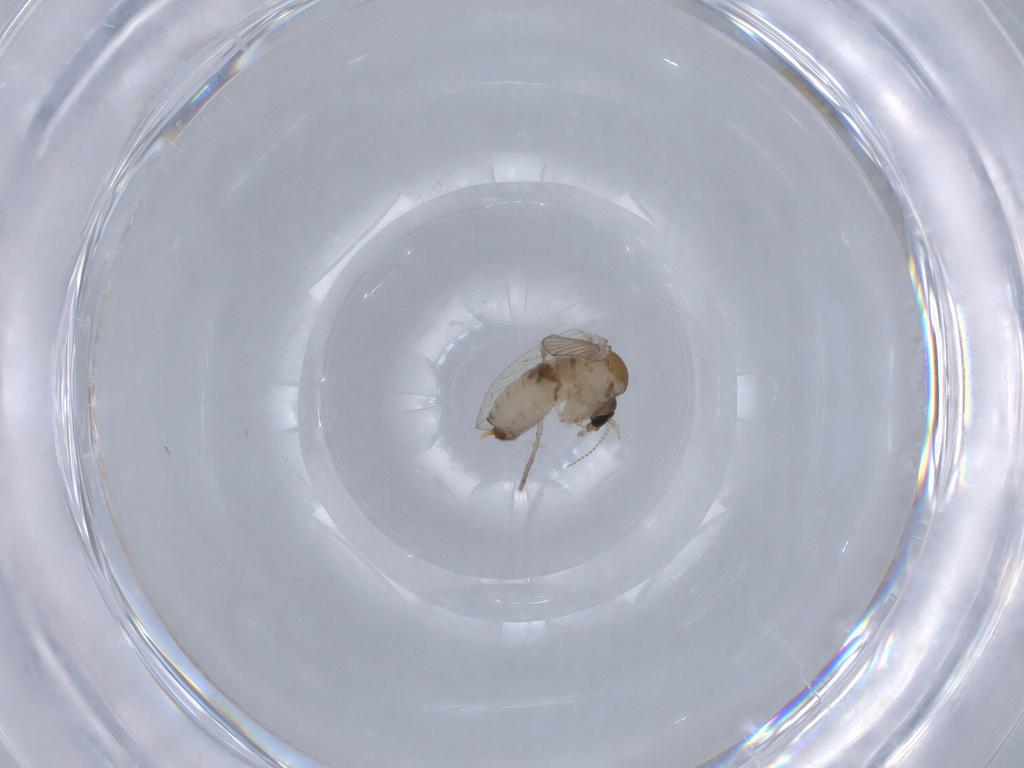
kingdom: Animalia
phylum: Arthropoda
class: Insecta
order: Diptera
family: Psychodidae
